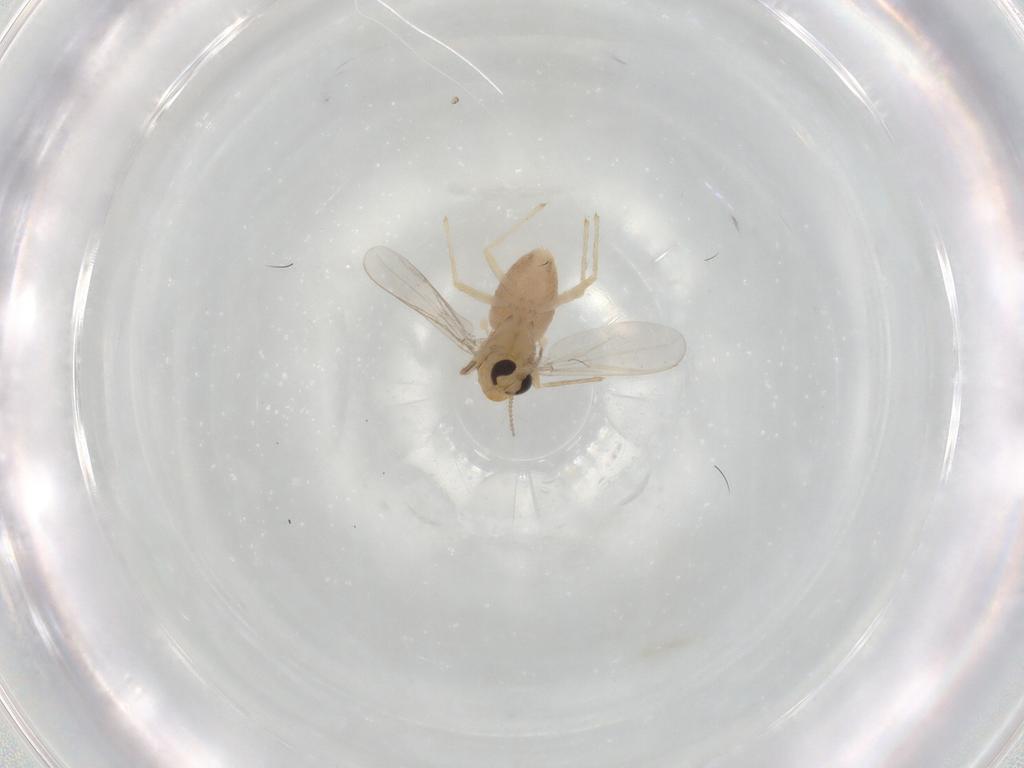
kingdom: Animalia
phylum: Arthropoda
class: Insecta
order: Diptera
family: Chironomidae
